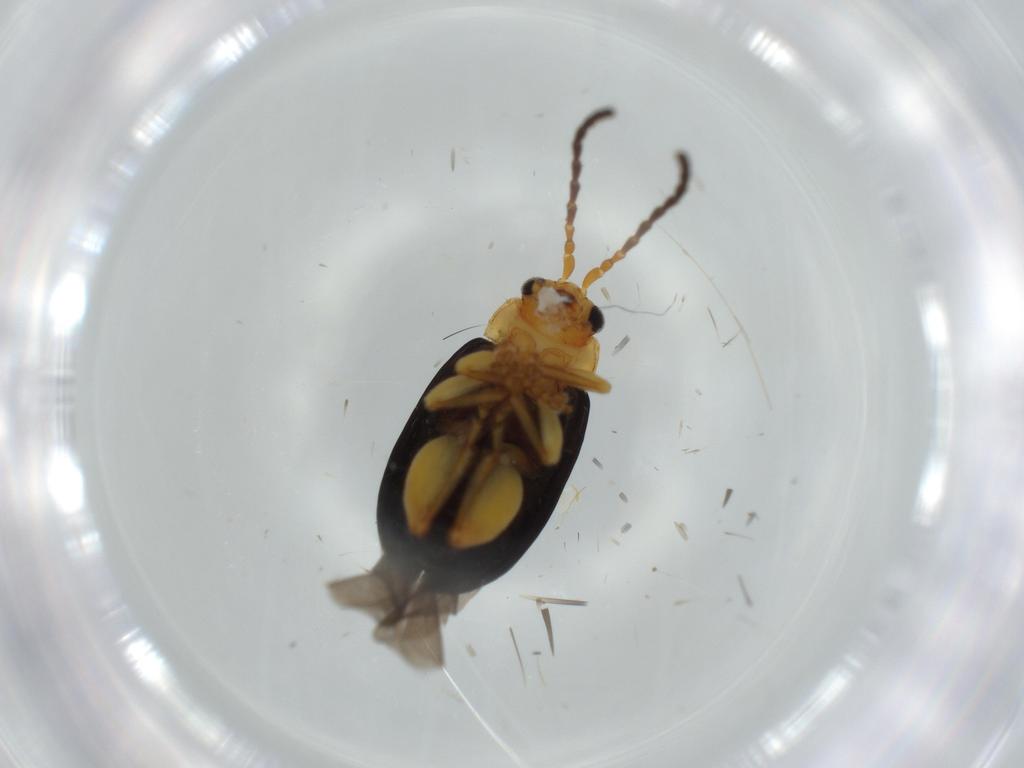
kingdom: Animalia
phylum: Arthropoda
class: Insecta
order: Coleoptera
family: Chrysomelidae
